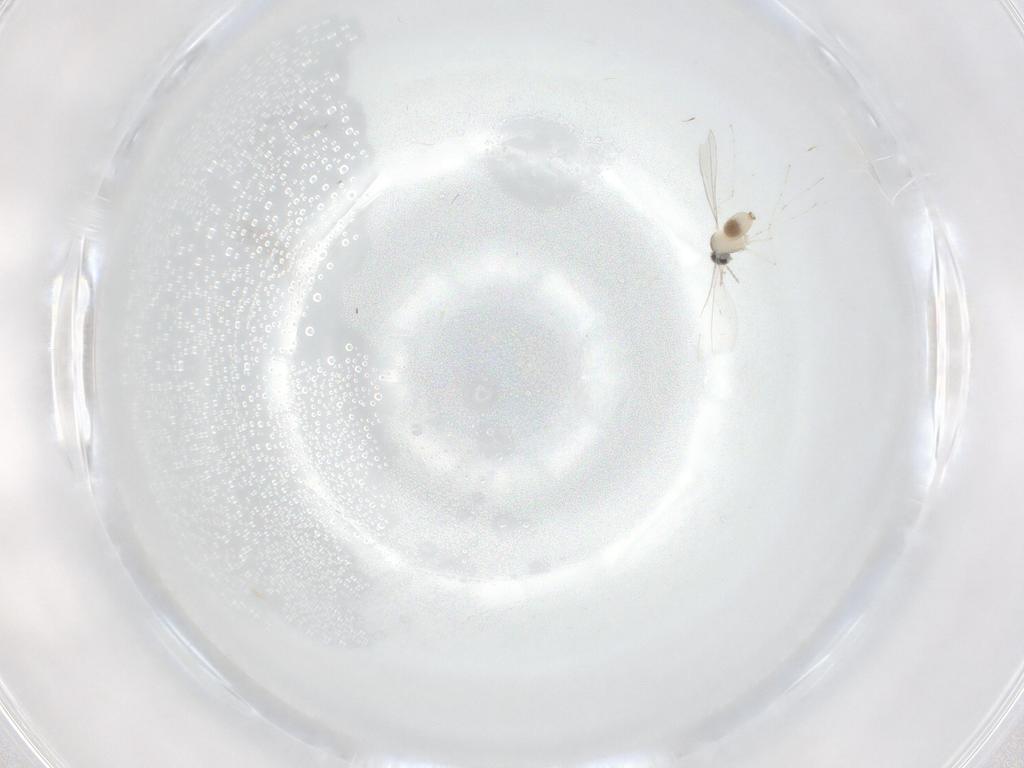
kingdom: Animalia
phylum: Arthropoda
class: Insecta
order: Diptera
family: Cecidomyiidae
